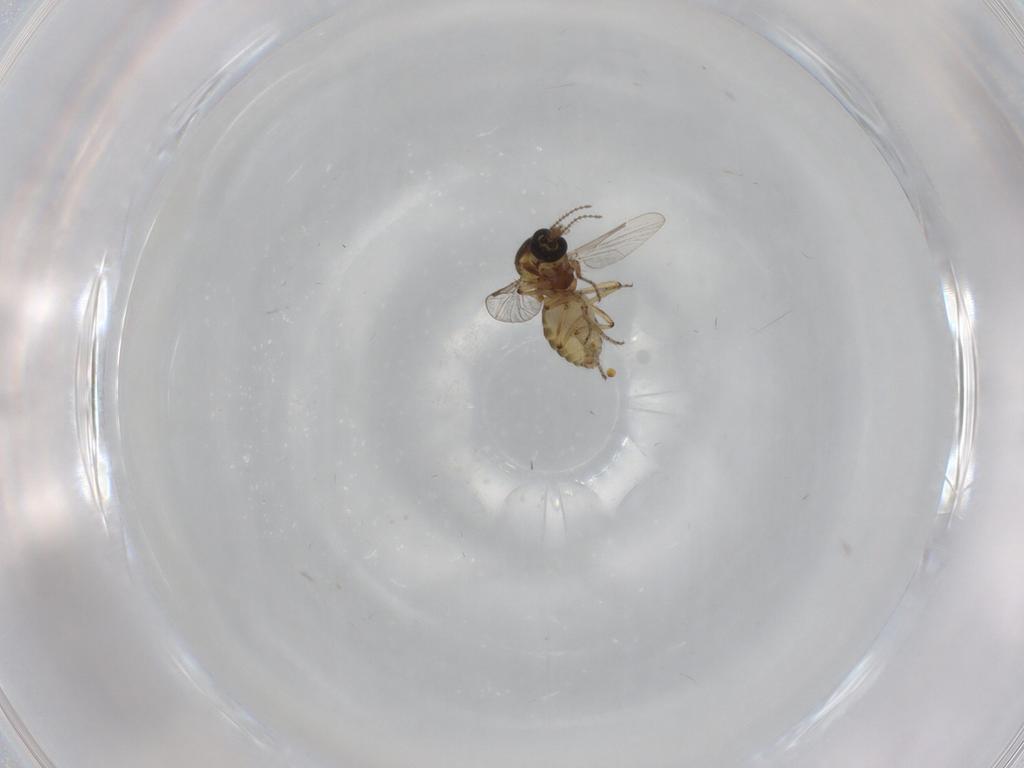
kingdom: Animalia
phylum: Arthropoda
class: Insecta
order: Diptera
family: Ceratopogonidae
